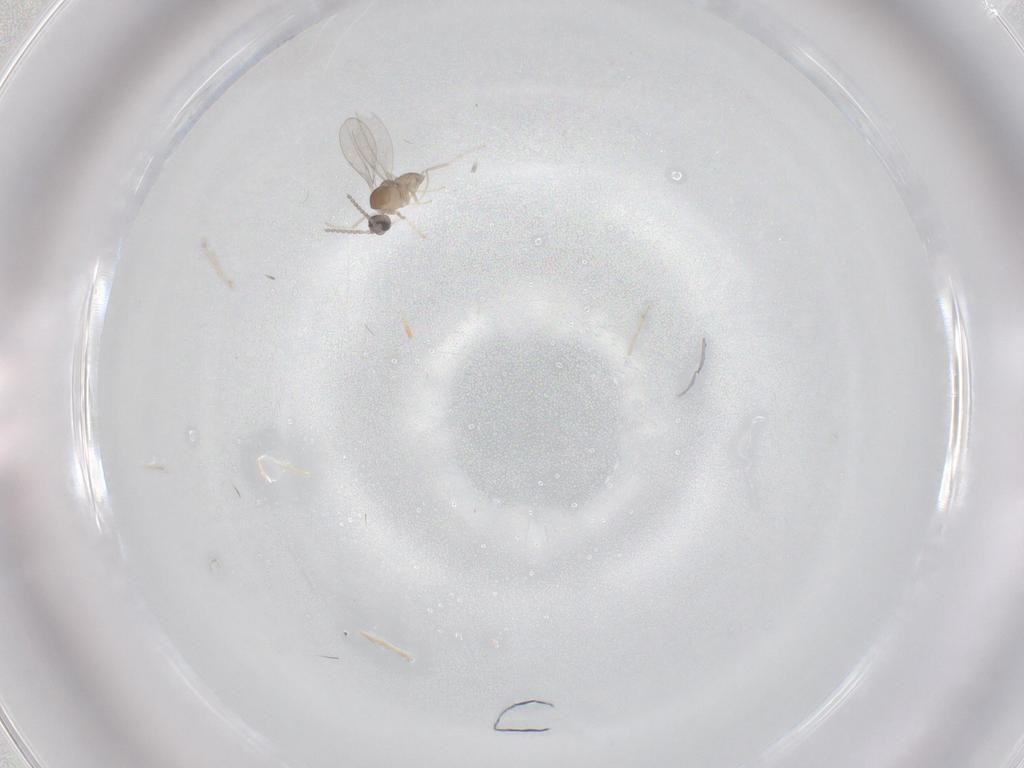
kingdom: Animalia
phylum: Arthropoda
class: Insecta
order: Diptera
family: Cecidomyiidae
